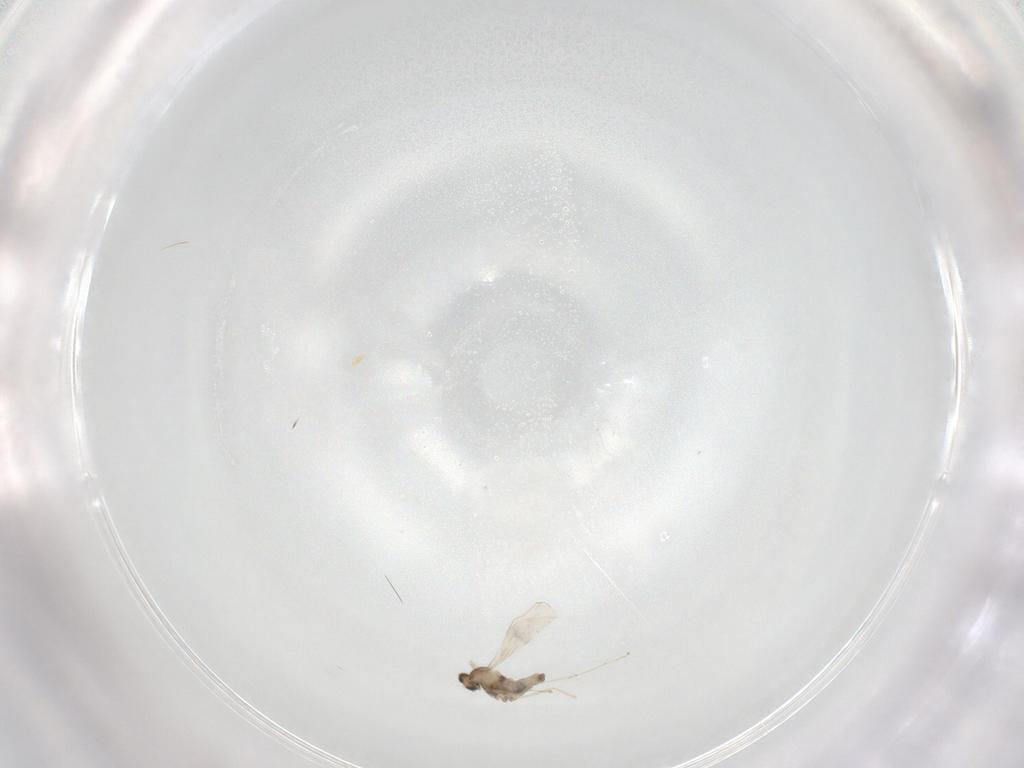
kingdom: Animalia
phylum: Arthropoda
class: Insecta
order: Diptera
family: Cecidomyiidae
